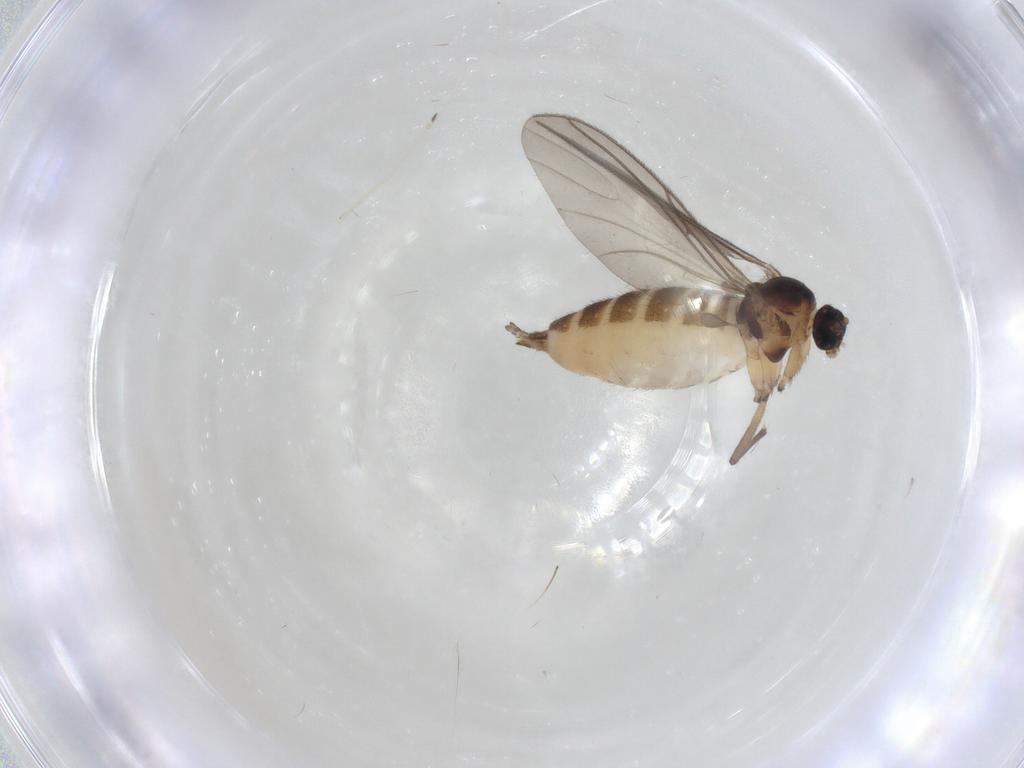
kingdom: Animalia
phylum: Arthropoda
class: Insecta
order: Diptera
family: Sciaridae
